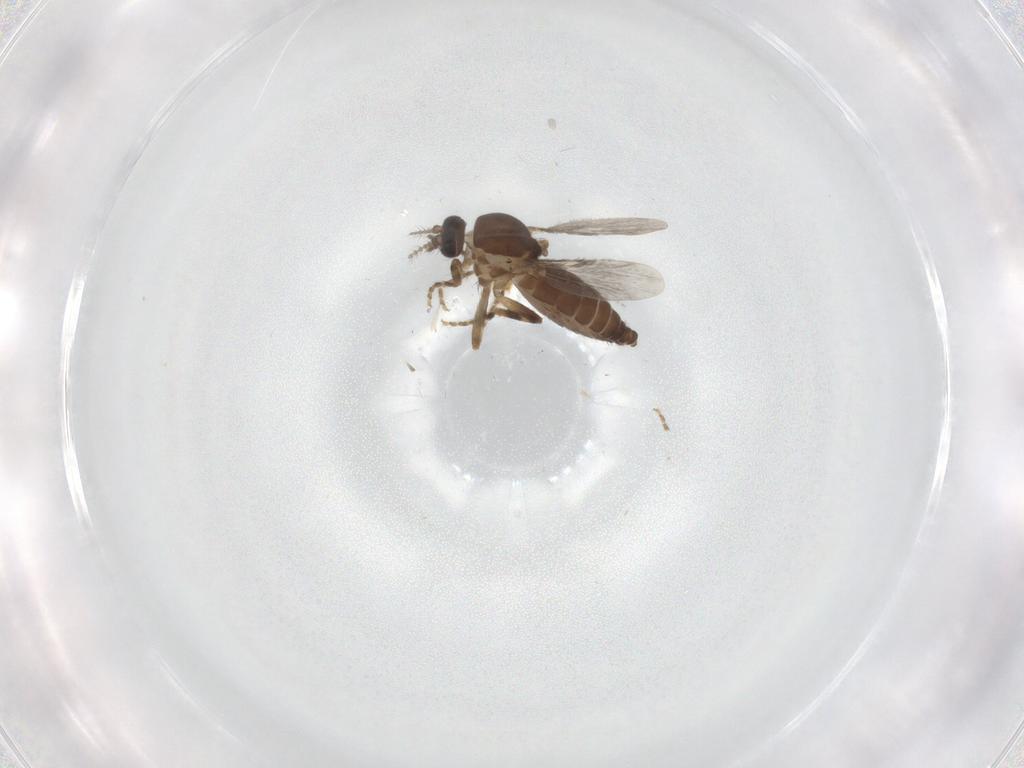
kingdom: Animalia
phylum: Arthropoda
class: Insecta
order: Diptera
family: Ceratopogonidae
